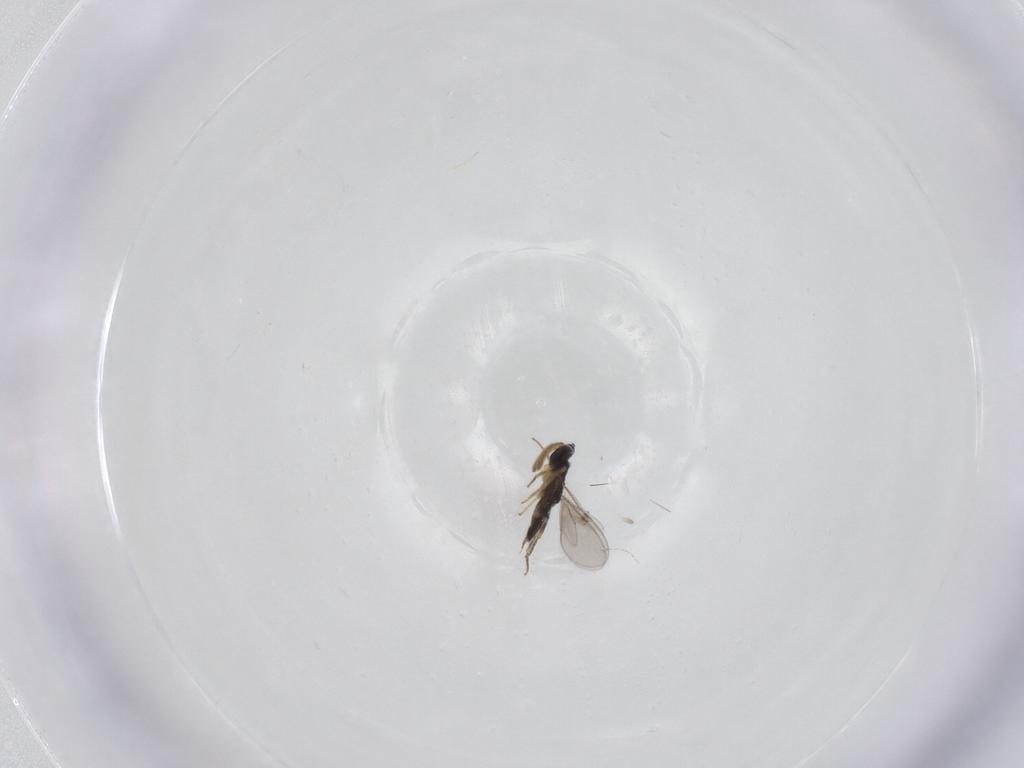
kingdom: Animalia
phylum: Arthropoda
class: Insecta
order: Hymenoptera
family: Encyrtidae
